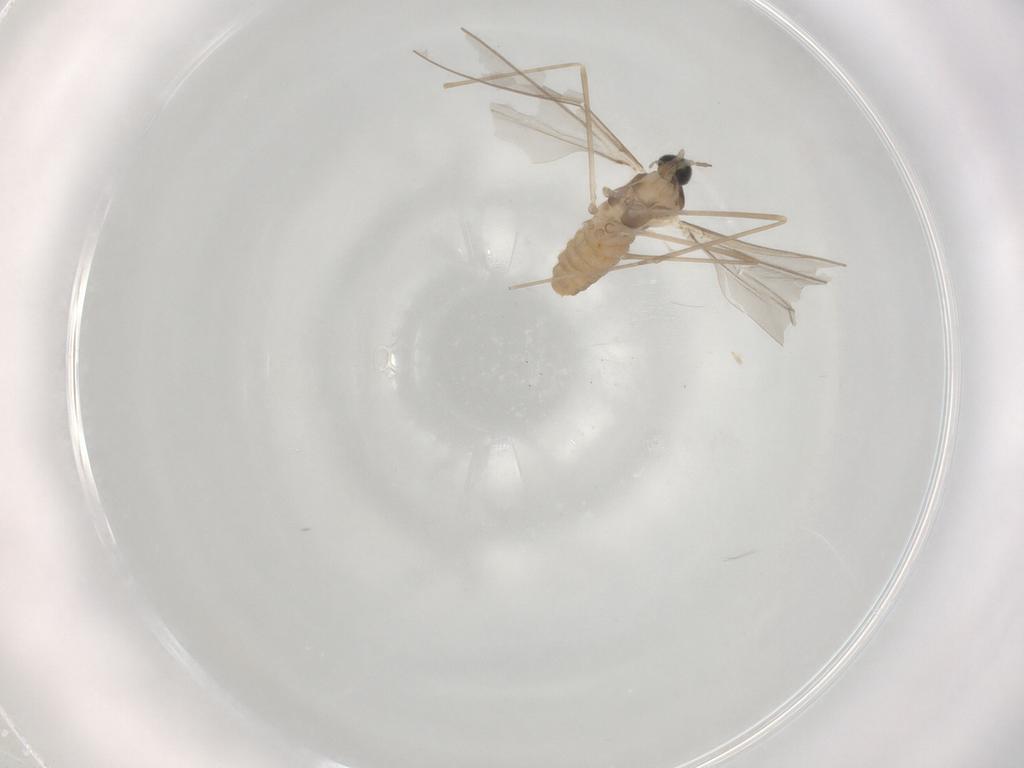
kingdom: Animalia
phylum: Arthropoda
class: Insecta
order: Diptera
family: Cecidomyiidae
